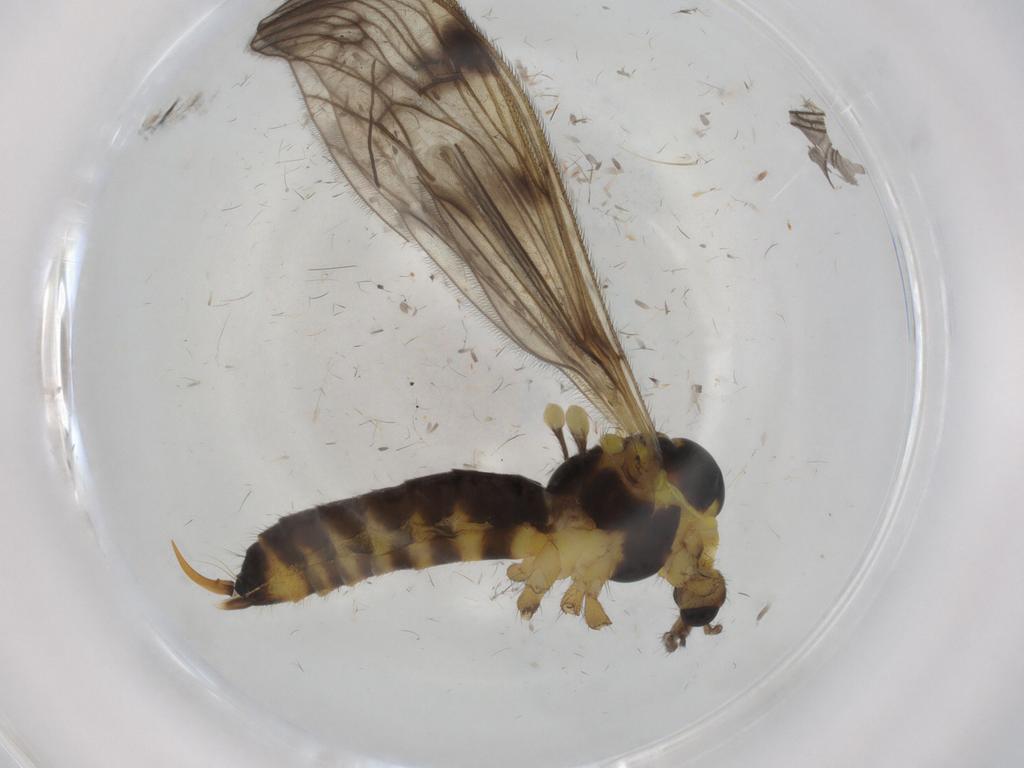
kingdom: Animalia
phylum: Arthropoda
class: Insecta
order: Diptera
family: Limoniidae
